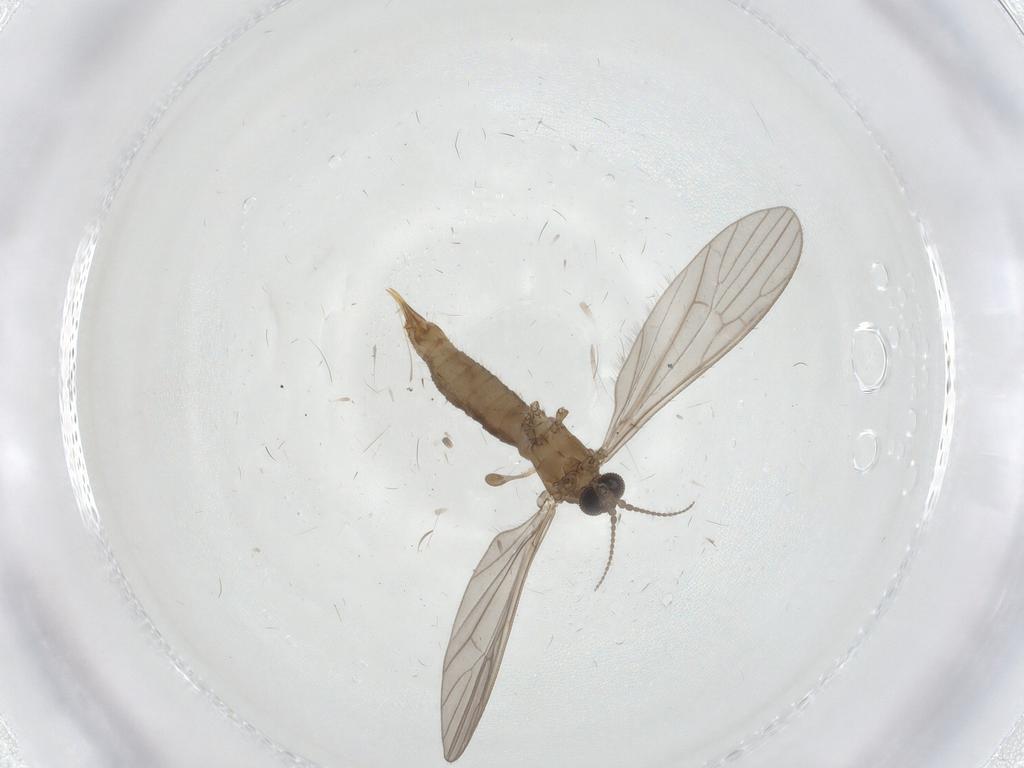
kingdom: Animalia
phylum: Arthropoda
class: Insecta
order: Diptera
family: Limoniidae
